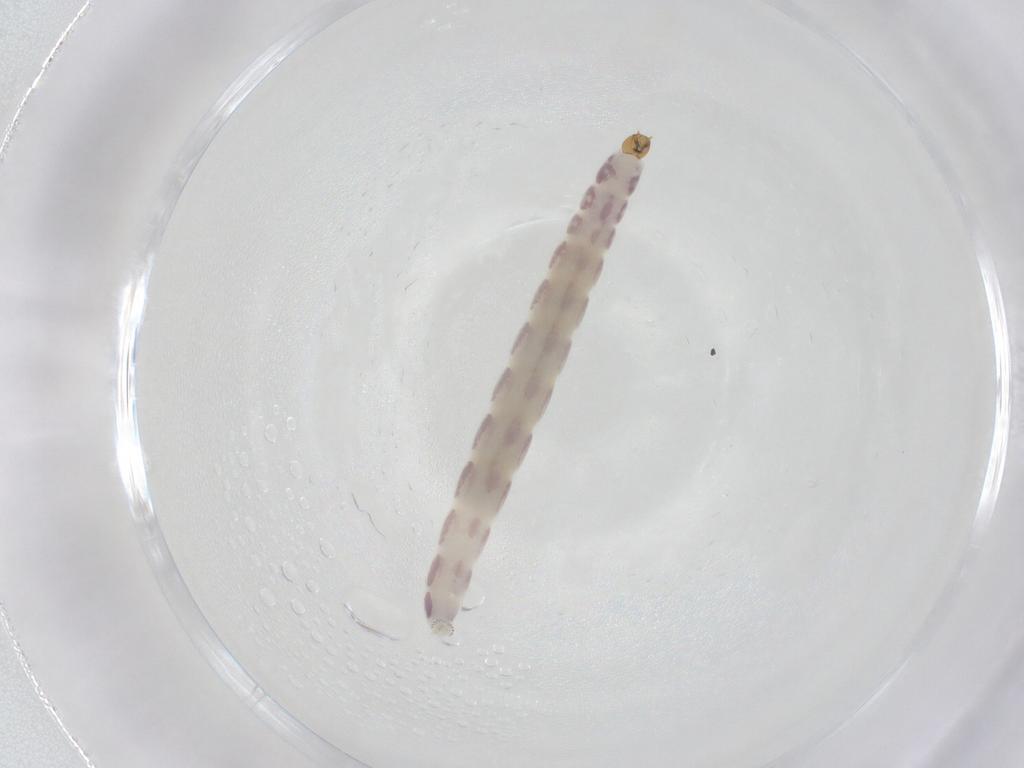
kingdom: Animalia
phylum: Arthropoda
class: Insecta
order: Diptera
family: Chironomidae
